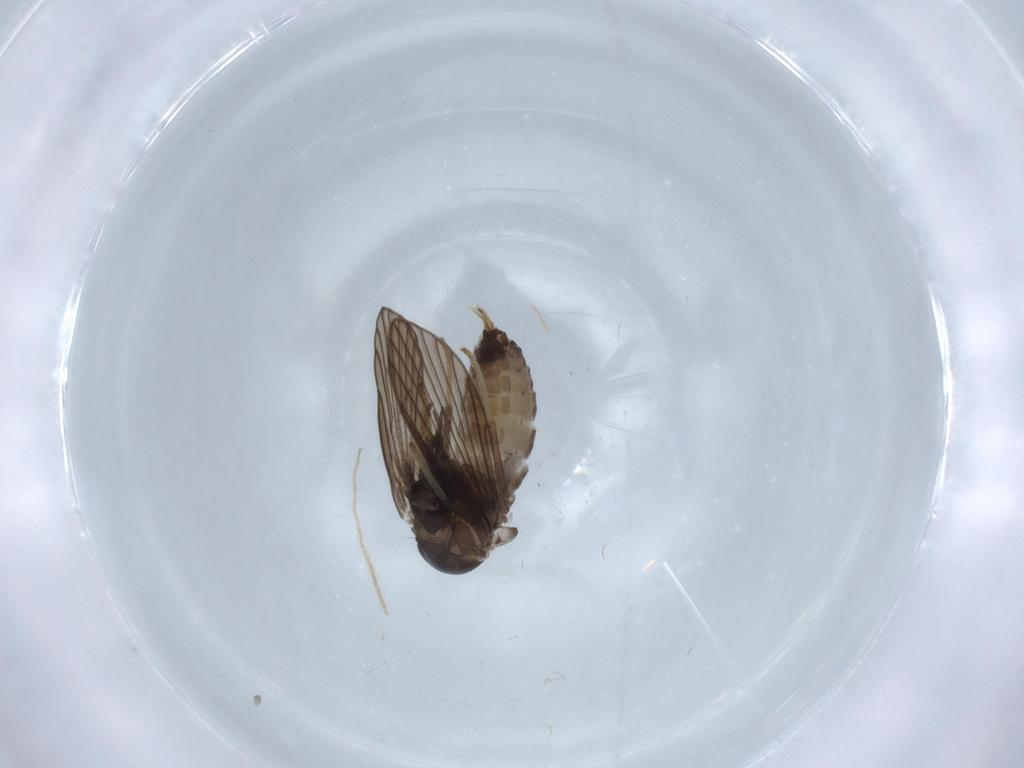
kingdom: Animalia
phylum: Arthropoda
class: Insecta
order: Diptera
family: Psychodidae
